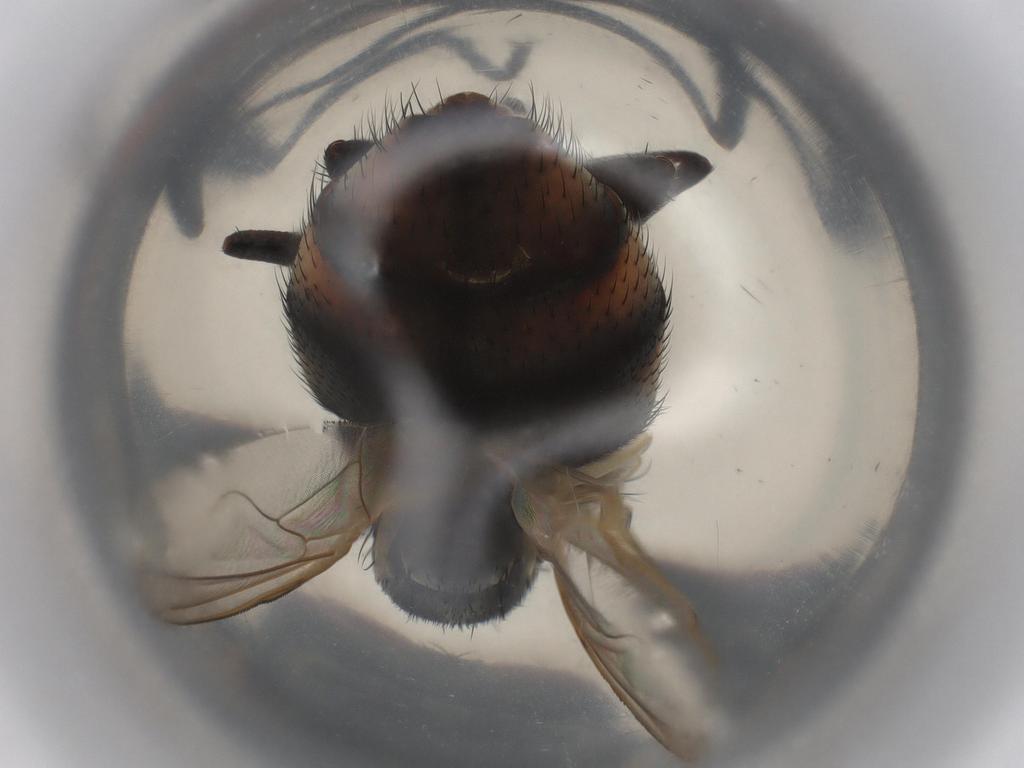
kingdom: Animalia
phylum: Arthropoda
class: Insecta
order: Diptera
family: Muscidae
